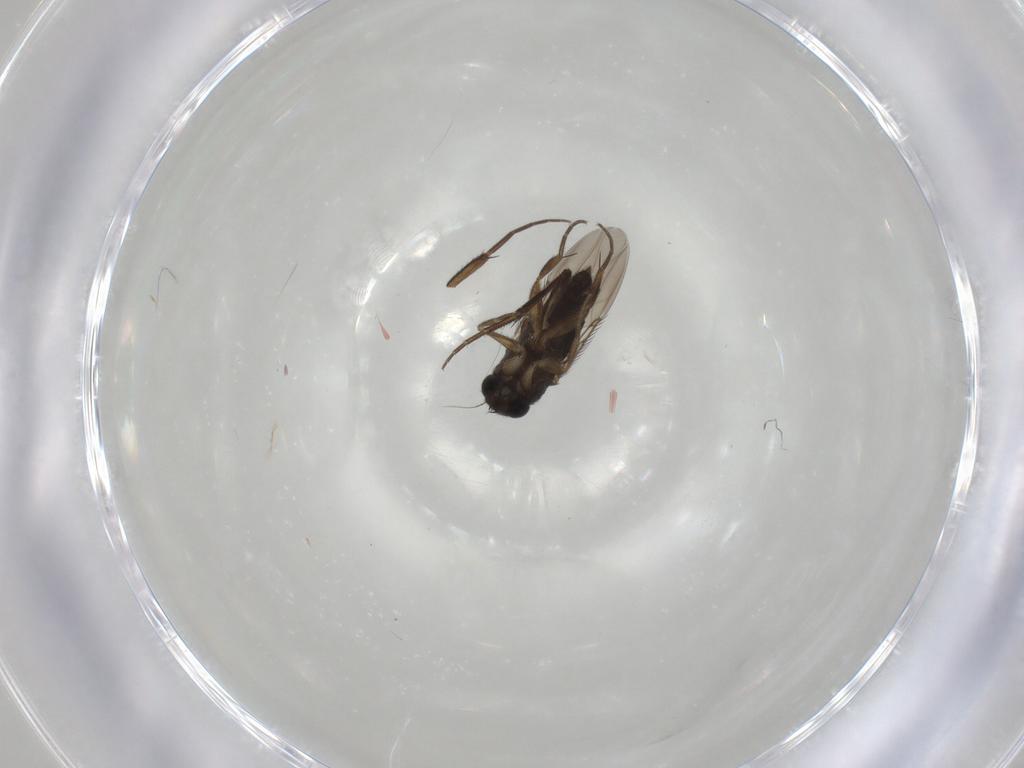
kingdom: Animalia
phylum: Arthropoda
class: Insecta
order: Diptera
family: Phoridae
